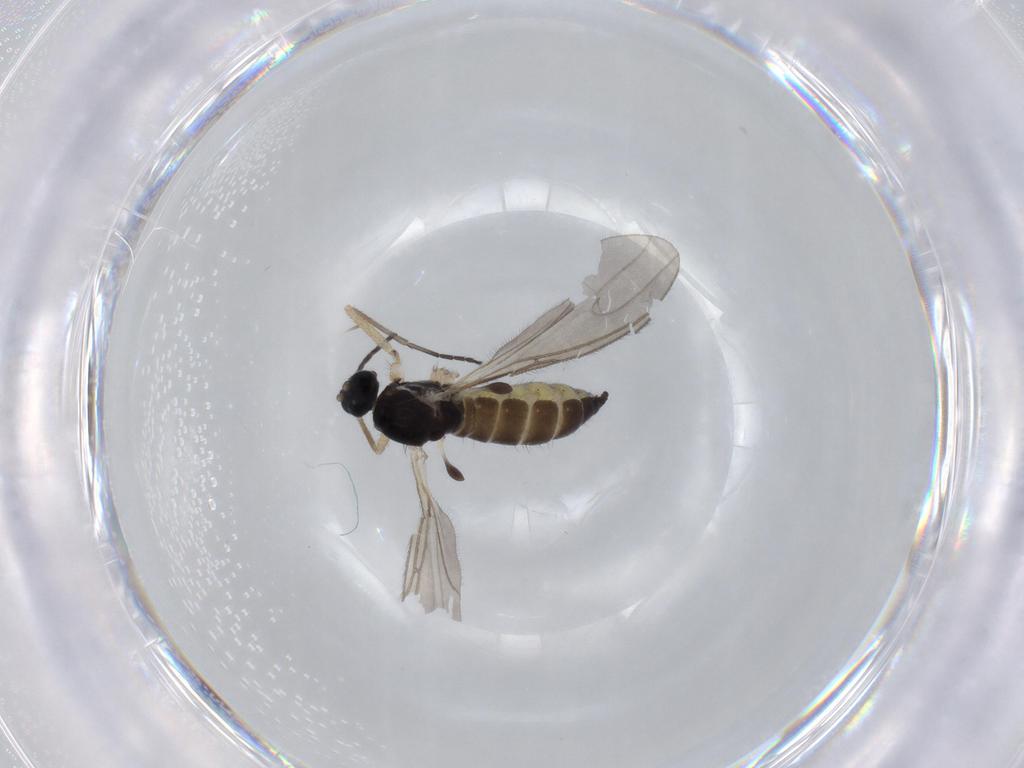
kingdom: Animalia
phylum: Arthropoda
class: Insecta
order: Diptera
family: Sciaridae
